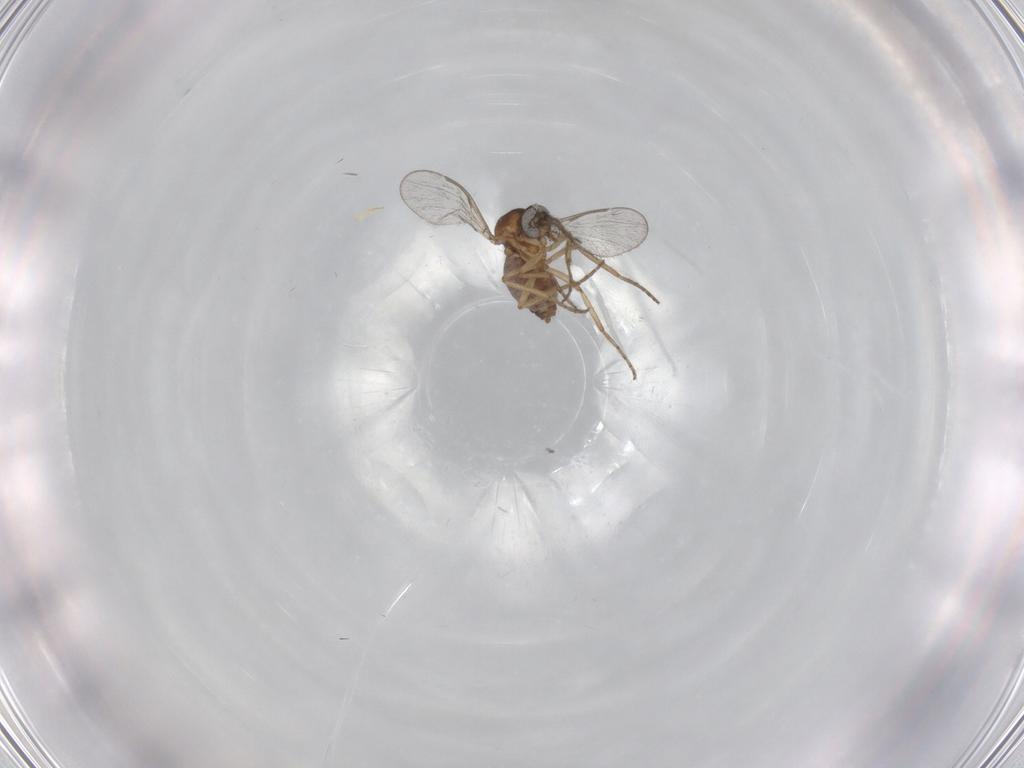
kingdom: Animalia
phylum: Arthropoda
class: Insecta
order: Diptera
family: Ceratopogonidae
